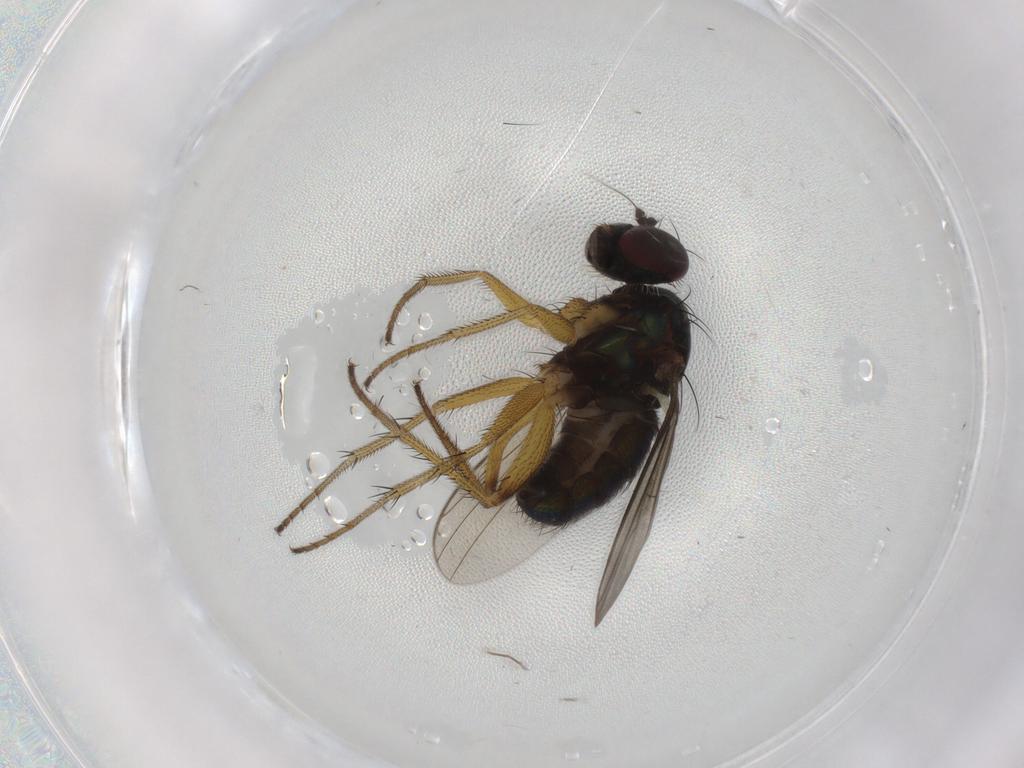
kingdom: Animalia
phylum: Arthropoda
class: Insecta
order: Diptera
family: Dolichopodidae
